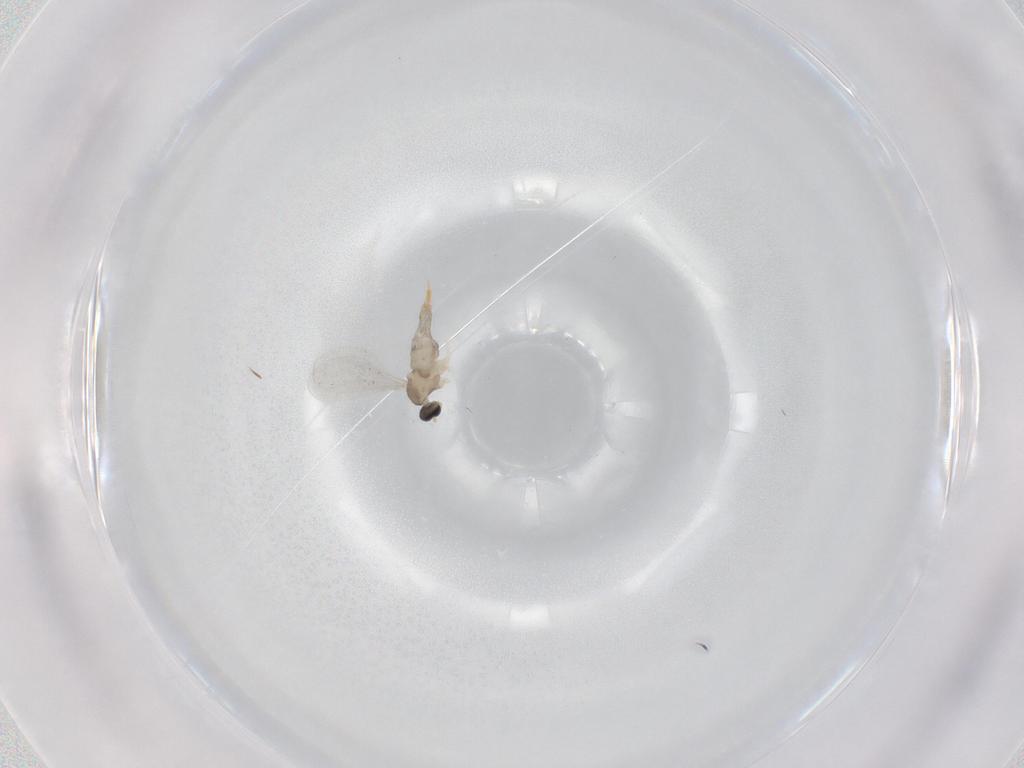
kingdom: Animalia
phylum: Arthropoda
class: Insecta
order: Diptera
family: Cecidomyiidae
